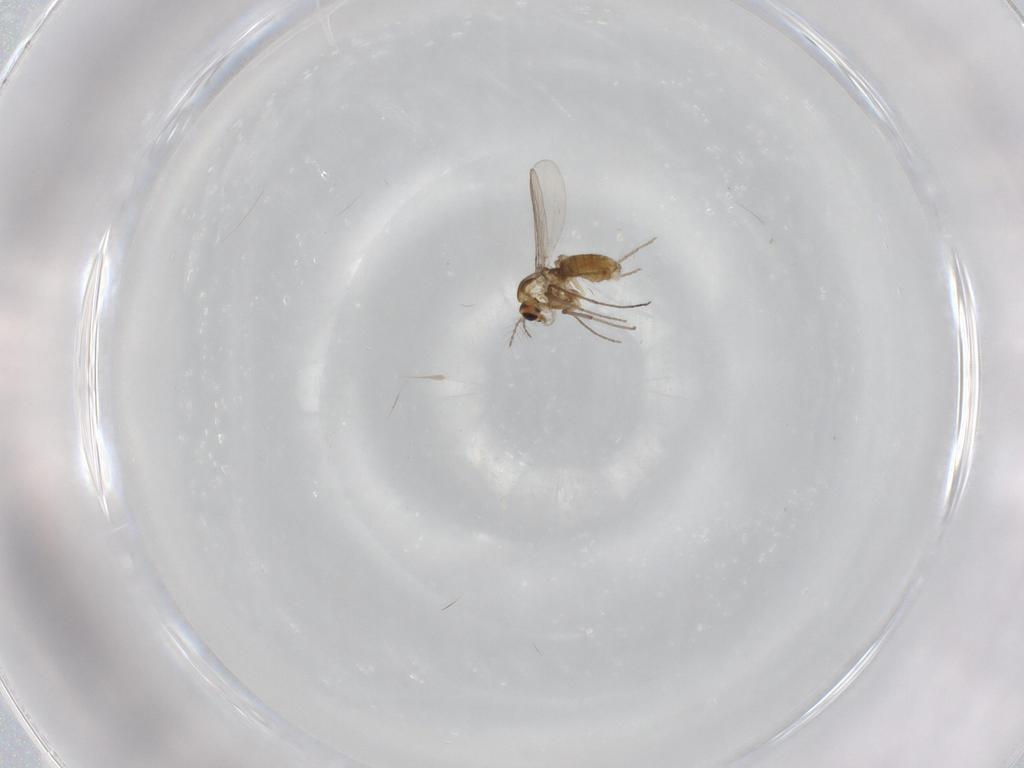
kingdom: Animalia
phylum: Arthropoda
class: Insecta
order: Diptera
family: Chironomidae
